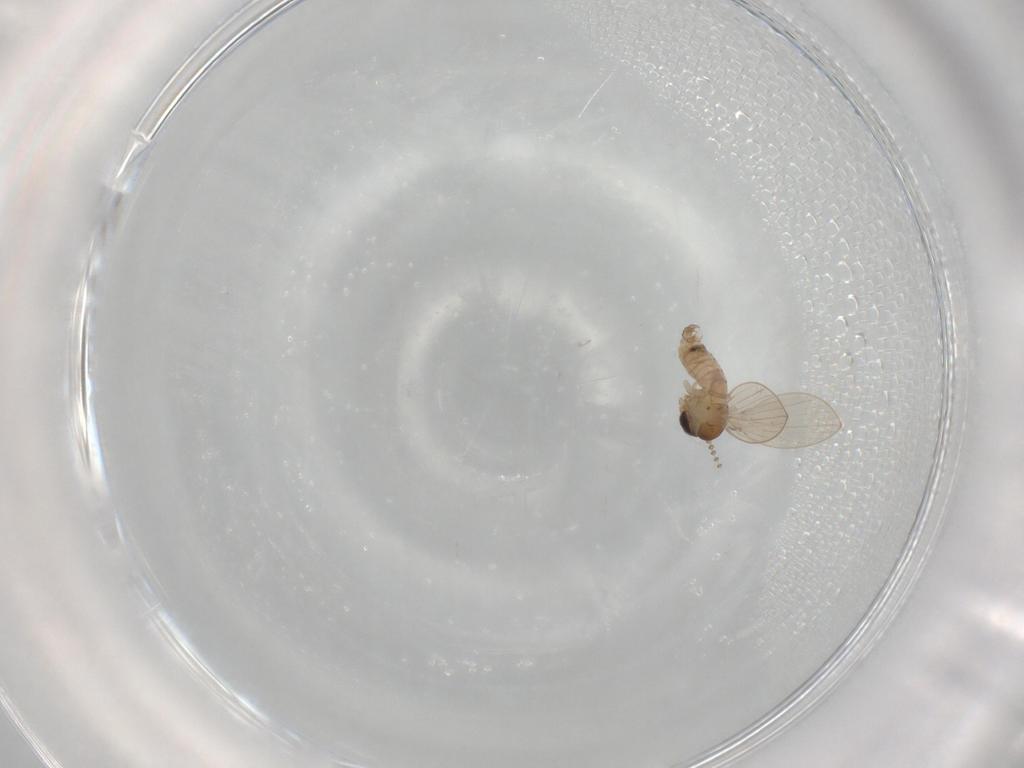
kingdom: Animalia
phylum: Arthropoda
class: Insecta
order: Diptera
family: Psychodidae
